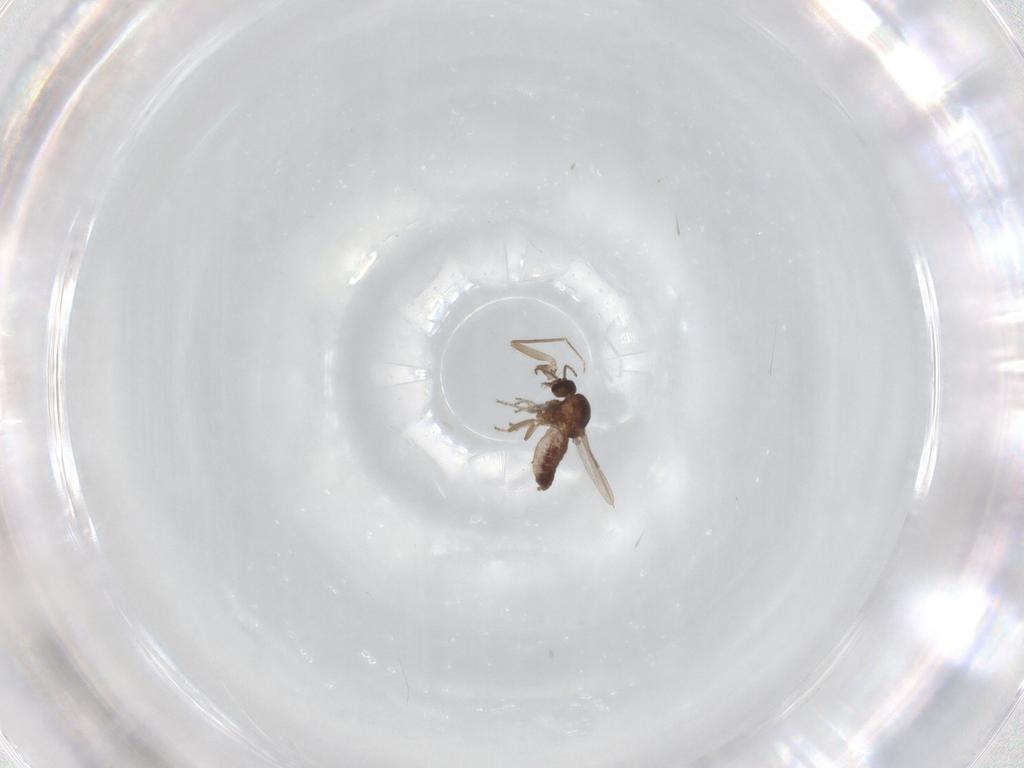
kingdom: Animalia
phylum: Arthropoda
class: Insecta
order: Diptera
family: Ceratopogonidae
